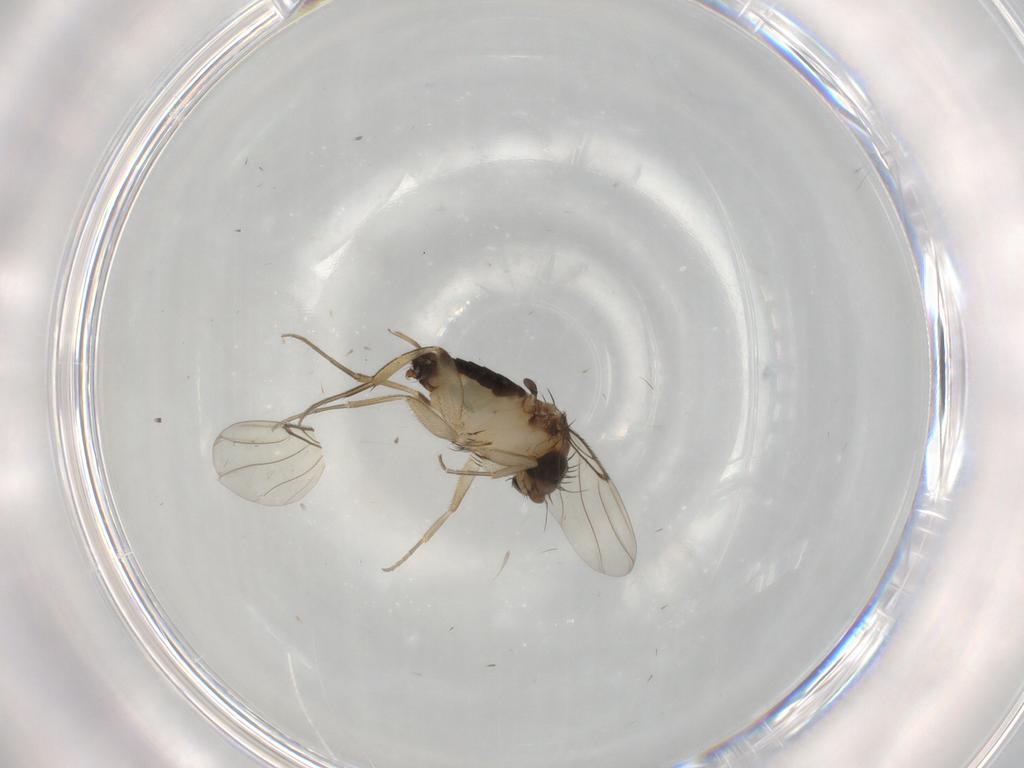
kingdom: Animalia
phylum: Arthropoda
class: Insecta
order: Diptera
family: Phoridae
